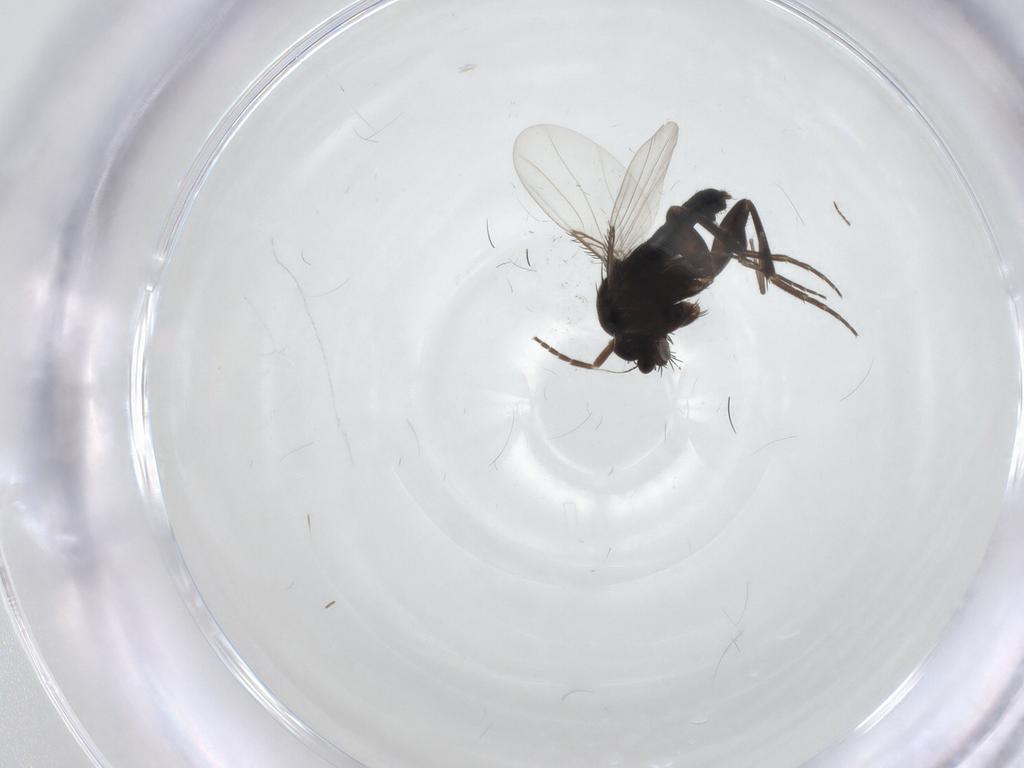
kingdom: Animalia
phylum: Arthropoda
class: Insecta
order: Diptera
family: Phoridae
